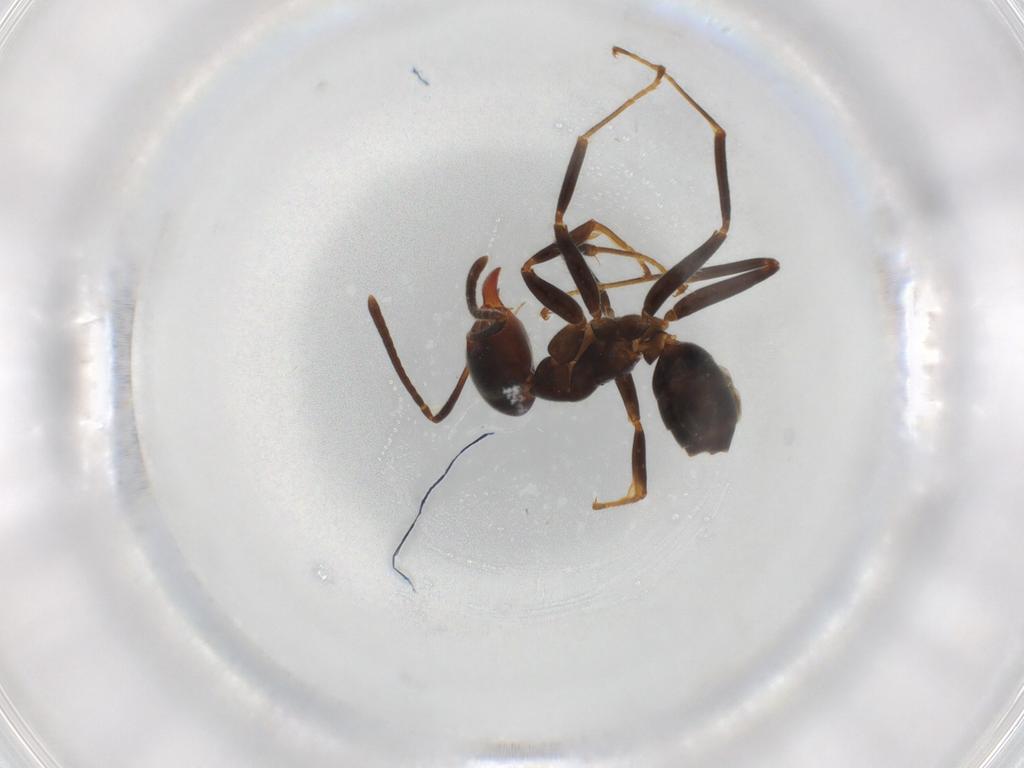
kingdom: Animalia
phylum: Arthropoda
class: Insecta
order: Hymenoptera
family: Formicidae
